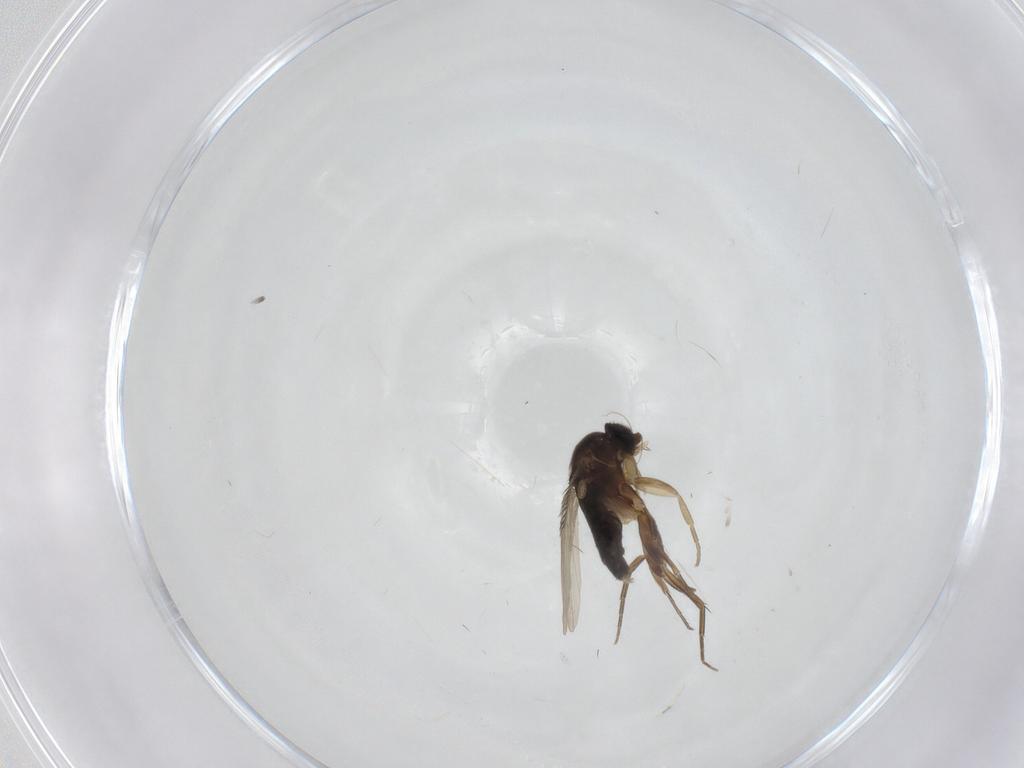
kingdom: Animalia
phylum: Arthropoda
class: Insecta
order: Diptera
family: Phoridae
